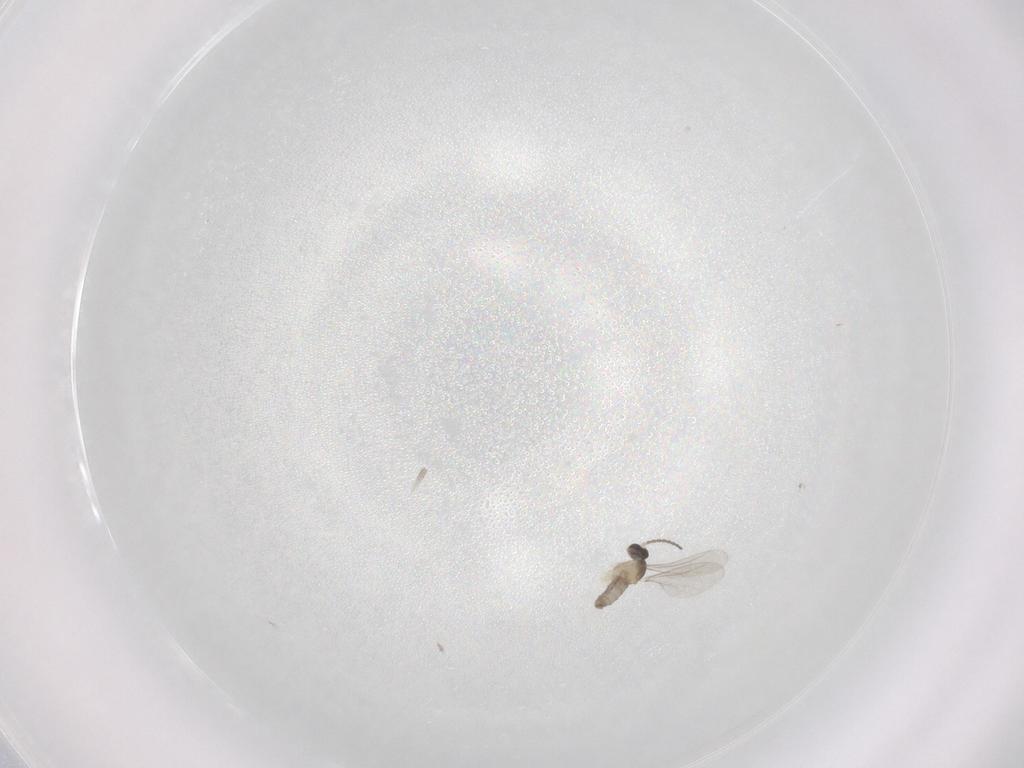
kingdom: Animalia
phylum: Arthropoda
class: Insecta
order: Diptera
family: Cecidomyiidae
